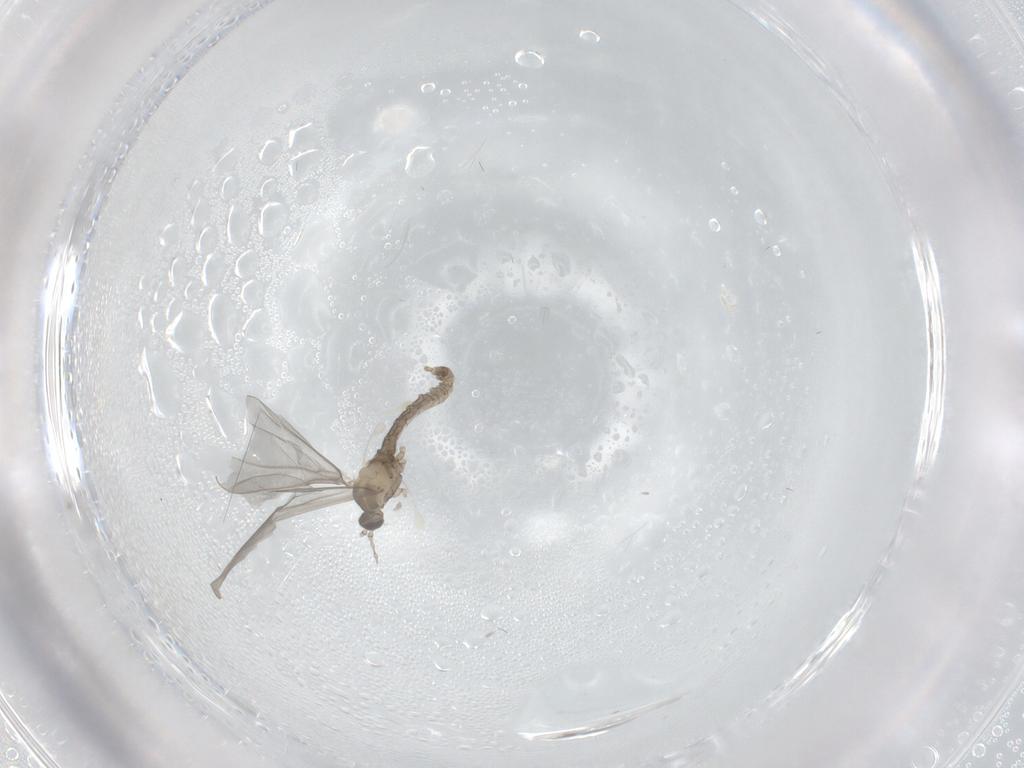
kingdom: Animalia
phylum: Arthropoda
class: Insecta
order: Diptera
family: Cecidomyiidae
